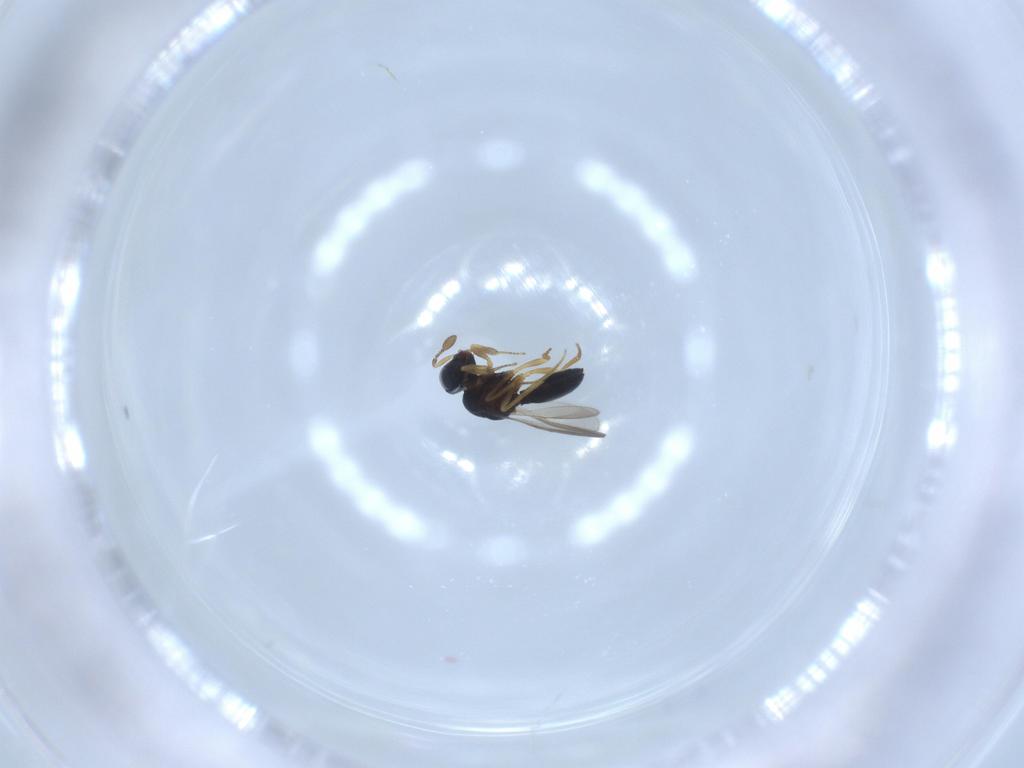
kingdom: Animalia
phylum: Arthropoda
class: Insecta
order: Hymenoptera
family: Scelionidae
